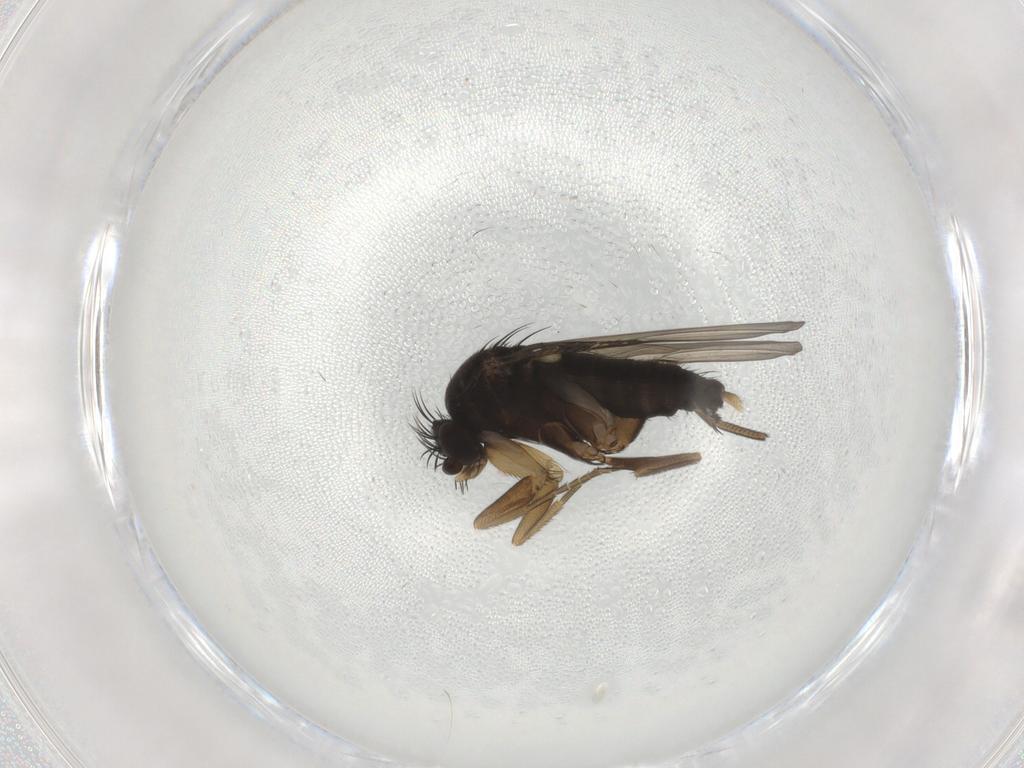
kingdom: Animalia
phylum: Arthropoda
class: Insecta
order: Diptera
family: Phoridae
